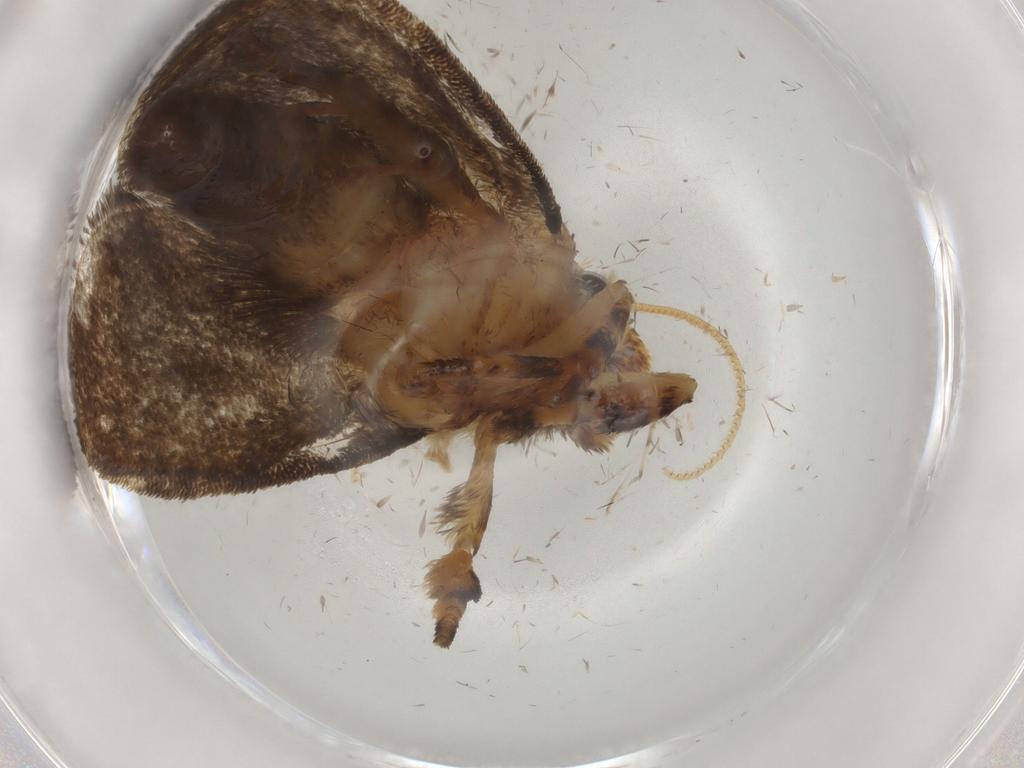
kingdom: Animalia
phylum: Arthropoda
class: Insecta
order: Lepidoptera
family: Tineidae
